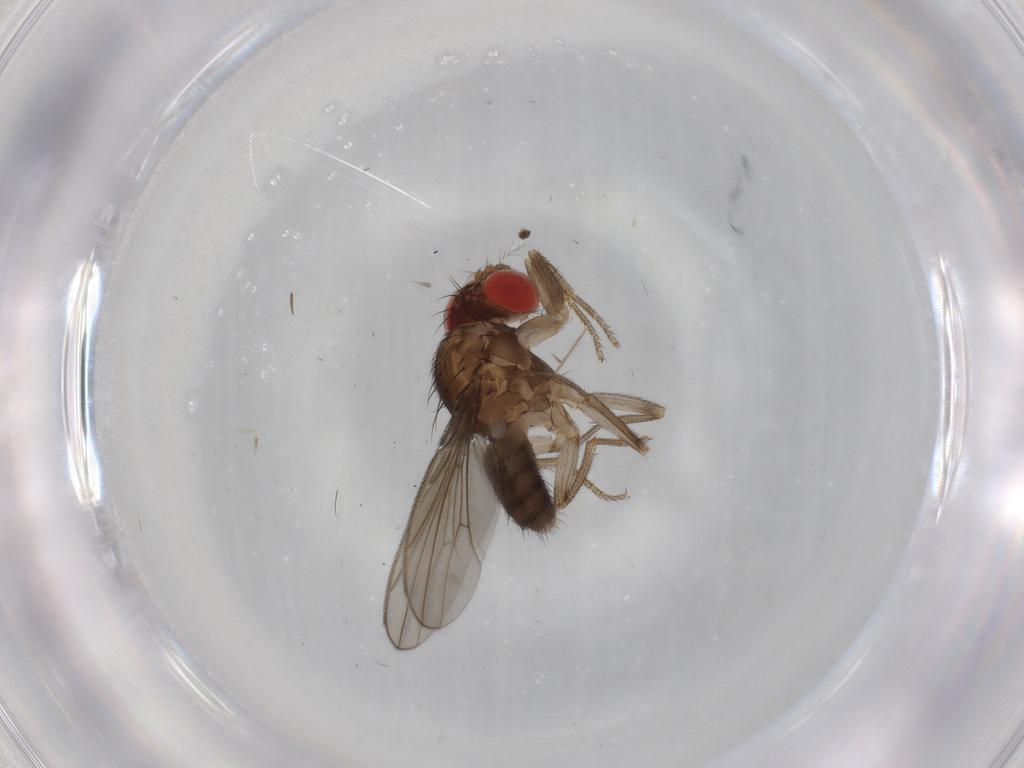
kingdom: Animalia
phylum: Arthropoda
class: Insecta
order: Diptera
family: Drosophilidae
